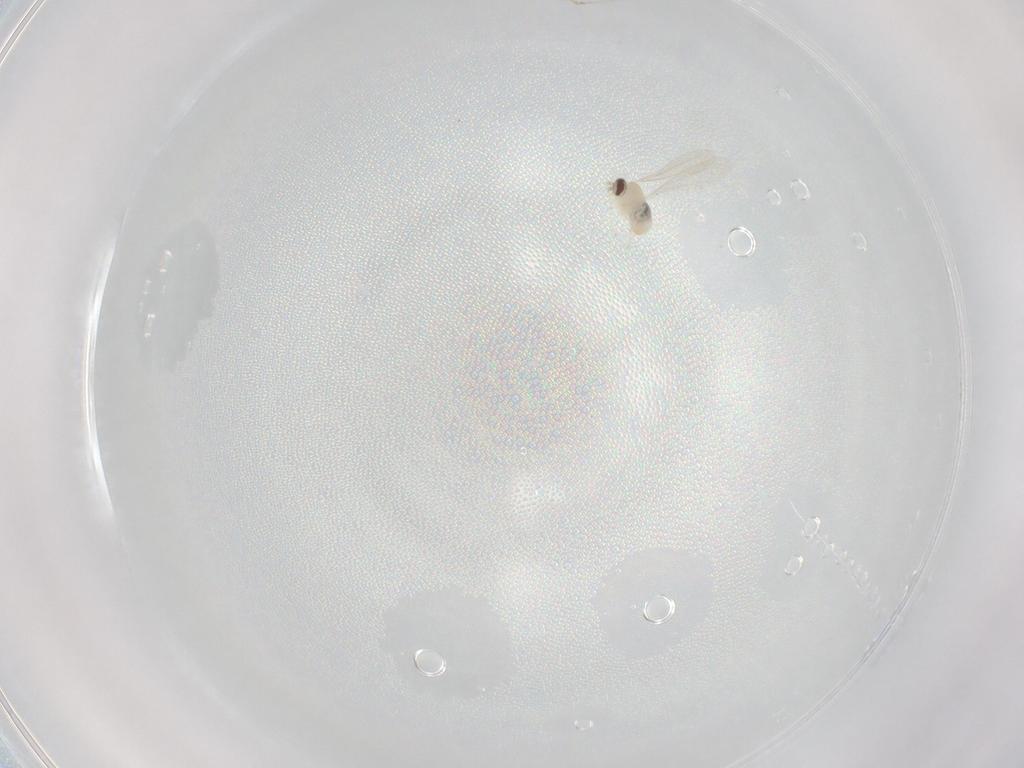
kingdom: Animalia
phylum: Arthropoda
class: Insecta
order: Diptera
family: Cecidomyiidae
